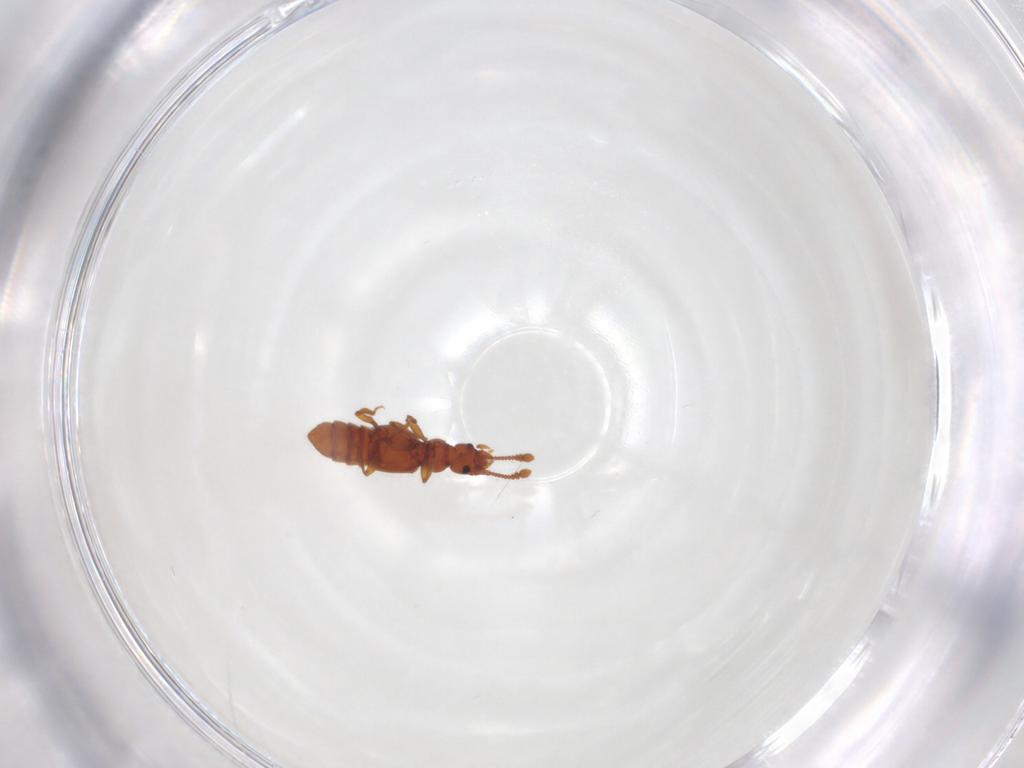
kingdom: Animalia
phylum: Arthropoda
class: Insecta
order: Coleoptera
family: Staphylinidae
